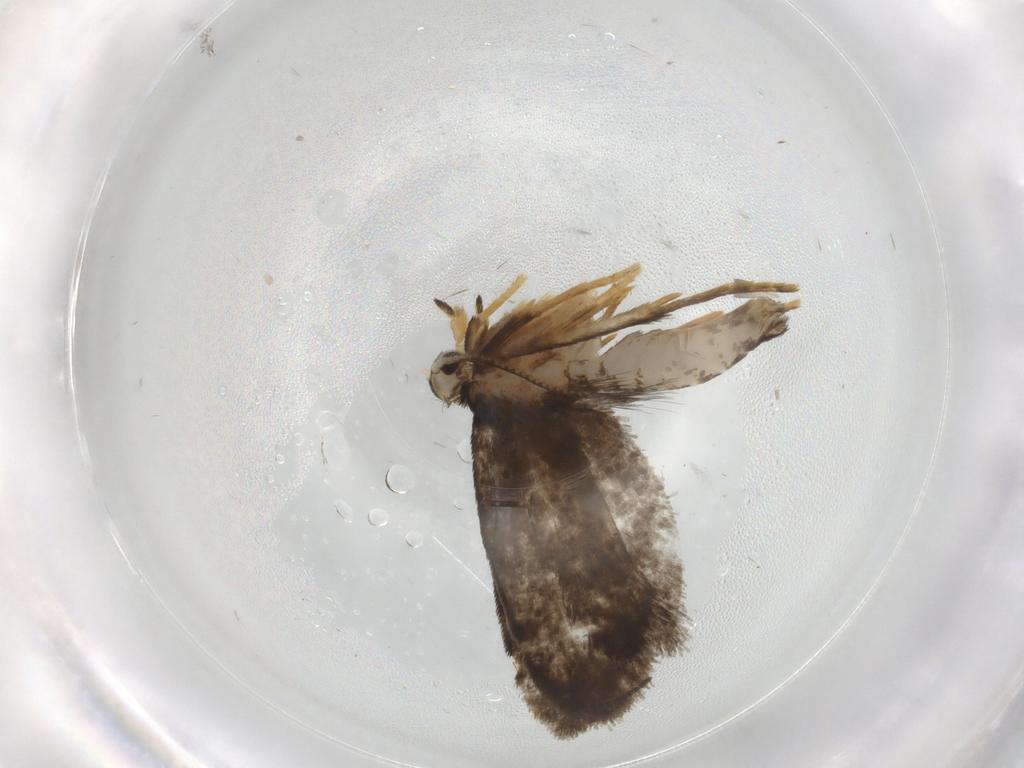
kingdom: Animalia
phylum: Arthropoda
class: Insecta
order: Lepidoptera
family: Psychidae
